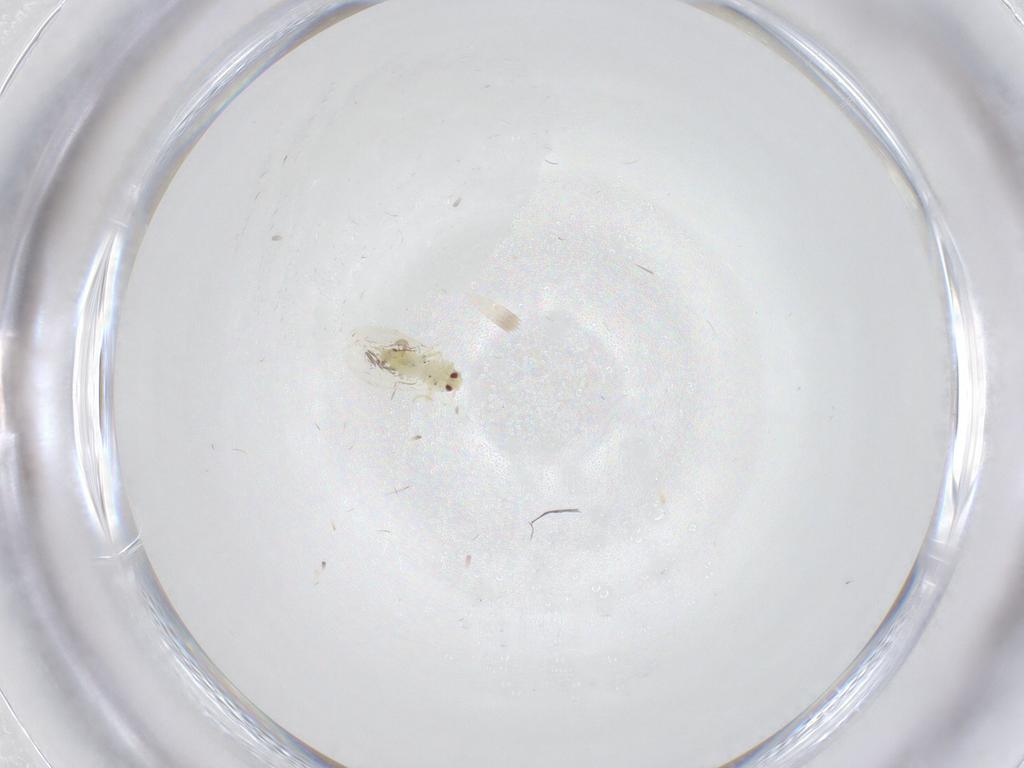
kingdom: Animalia
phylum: Arthropoda
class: Insecta
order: Hemiptera
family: Aleyrodidae
